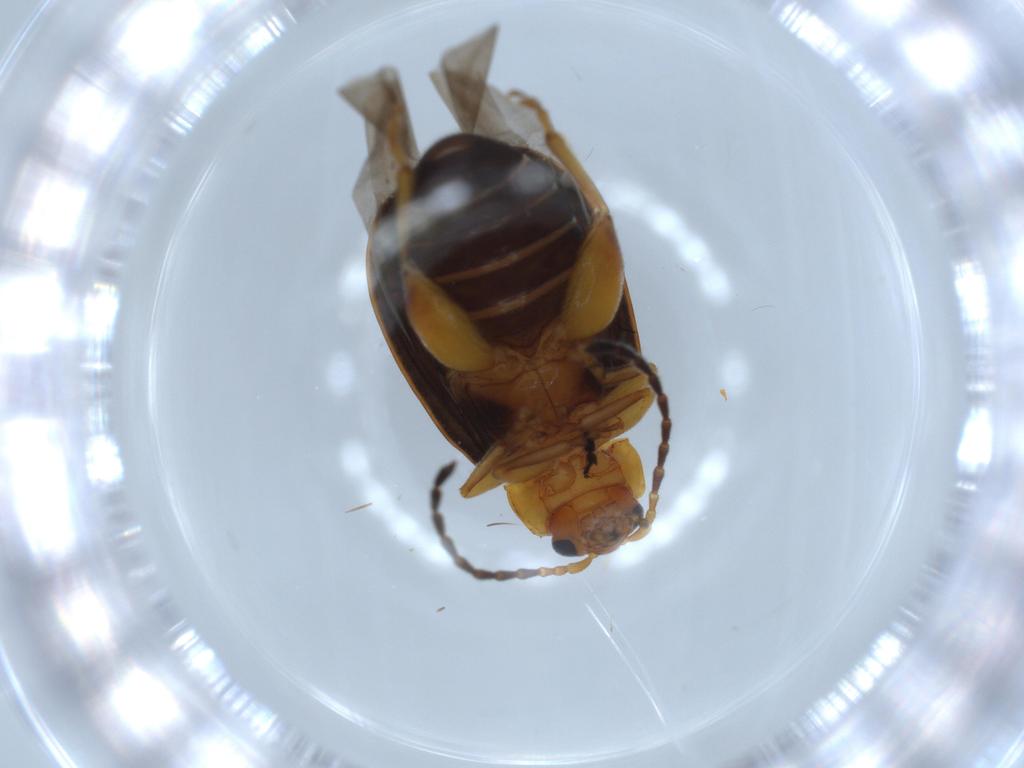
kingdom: Animalia
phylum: Arthropoda
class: Insecta
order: Coleoptera
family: Chrysomelidae
